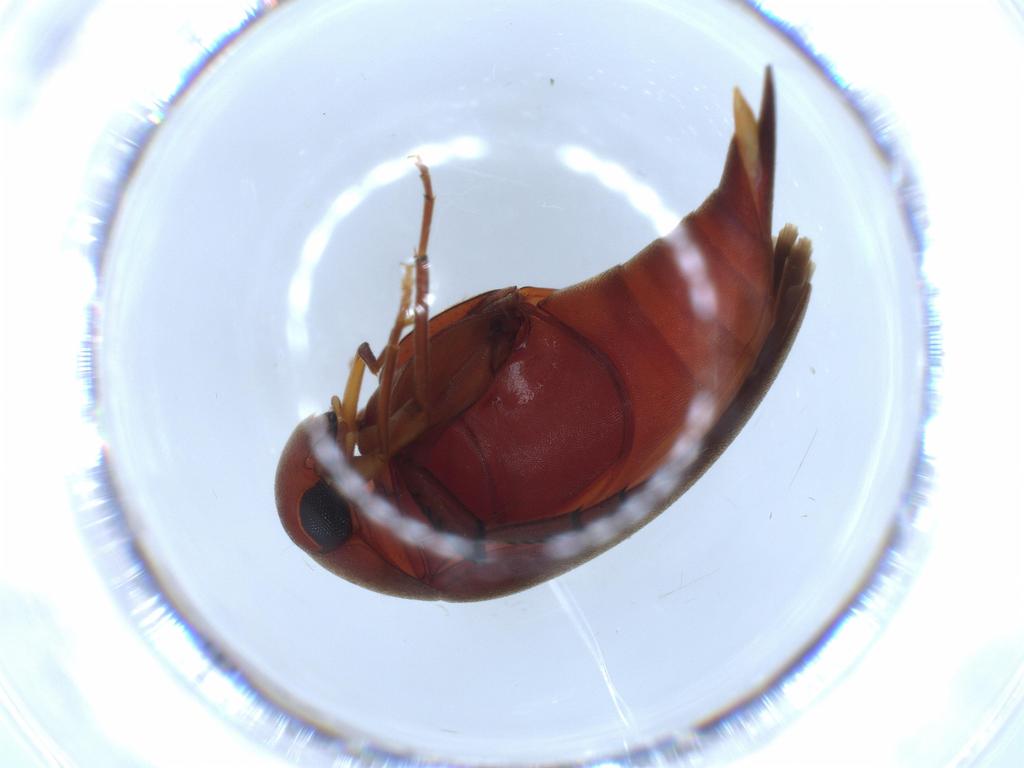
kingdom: Animalia
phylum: Arthropoda
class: Insecta
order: Coleoptera
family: Mordellidae
